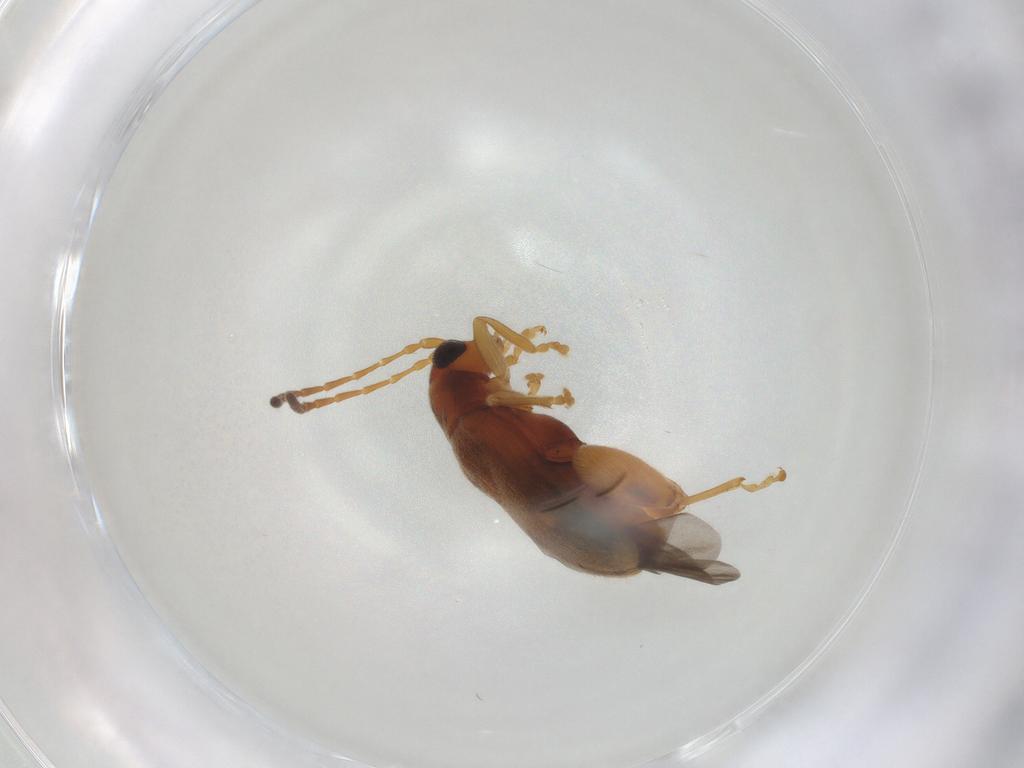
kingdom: Animalia
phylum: Arthropoda
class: Insecta
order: Coleoptera
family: Chrysomelidae
